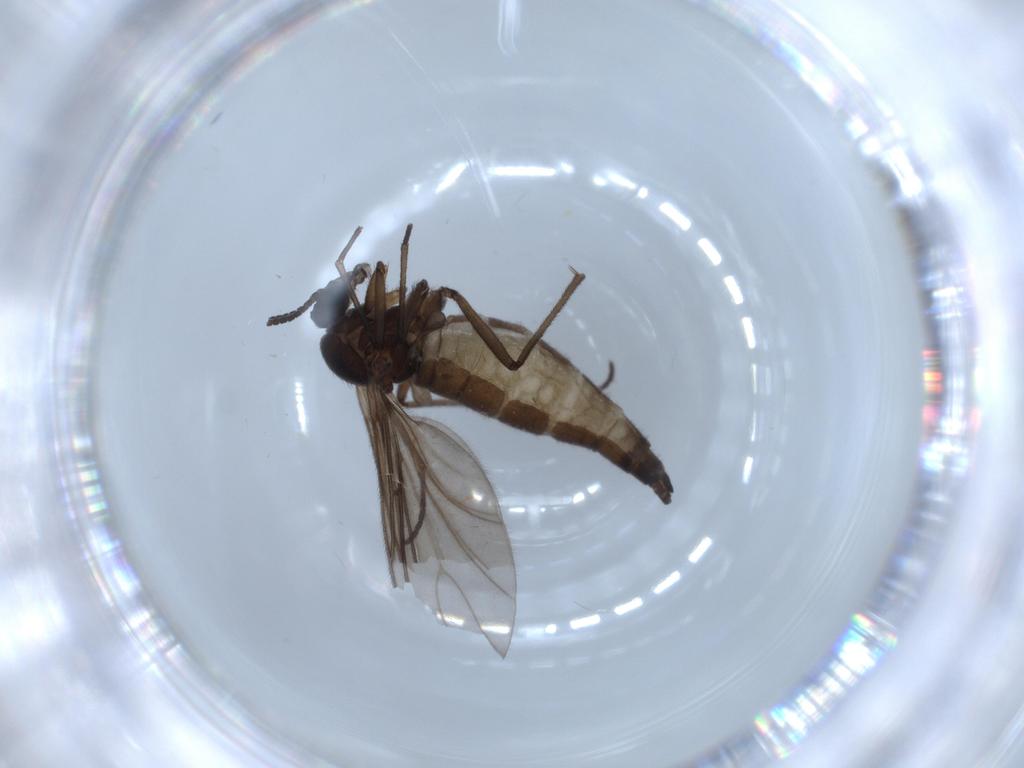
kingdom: Animalia
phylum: Arthropoda
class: Insecta
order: Diptera
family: Sciaridae
